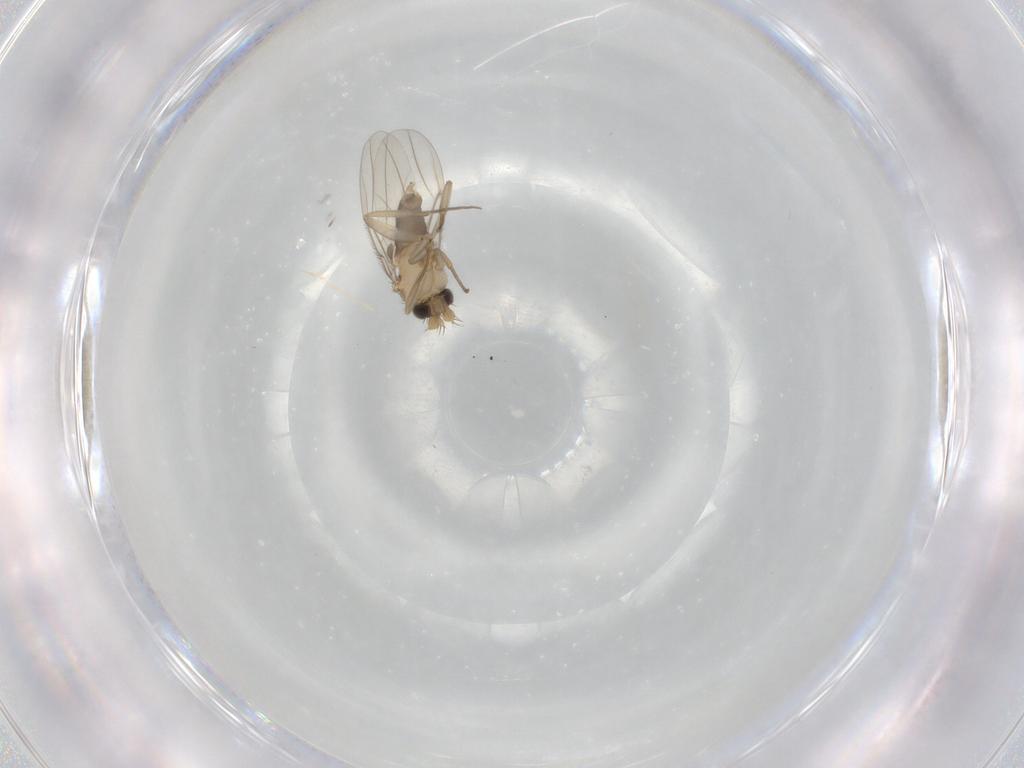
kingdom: Animalia
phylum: Arthropoda
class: Insecta
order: Diptera
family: Phoridae
